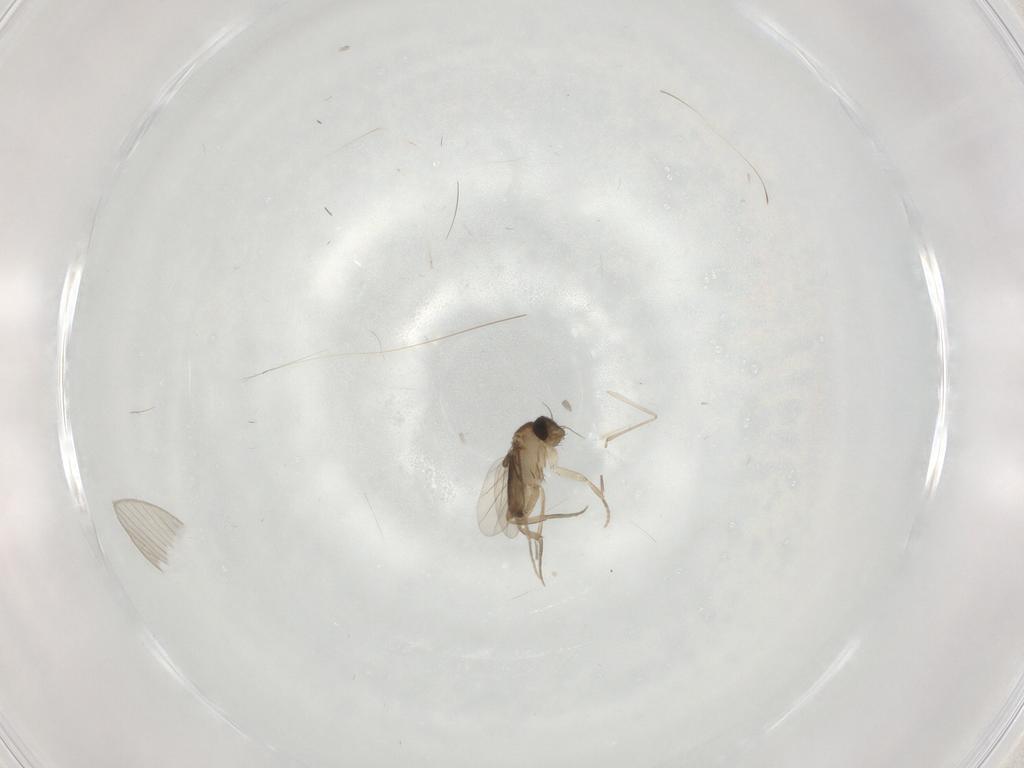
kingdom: Animalia
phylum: Arthropoda
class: Insecta
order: Diptera
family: Phoridae
